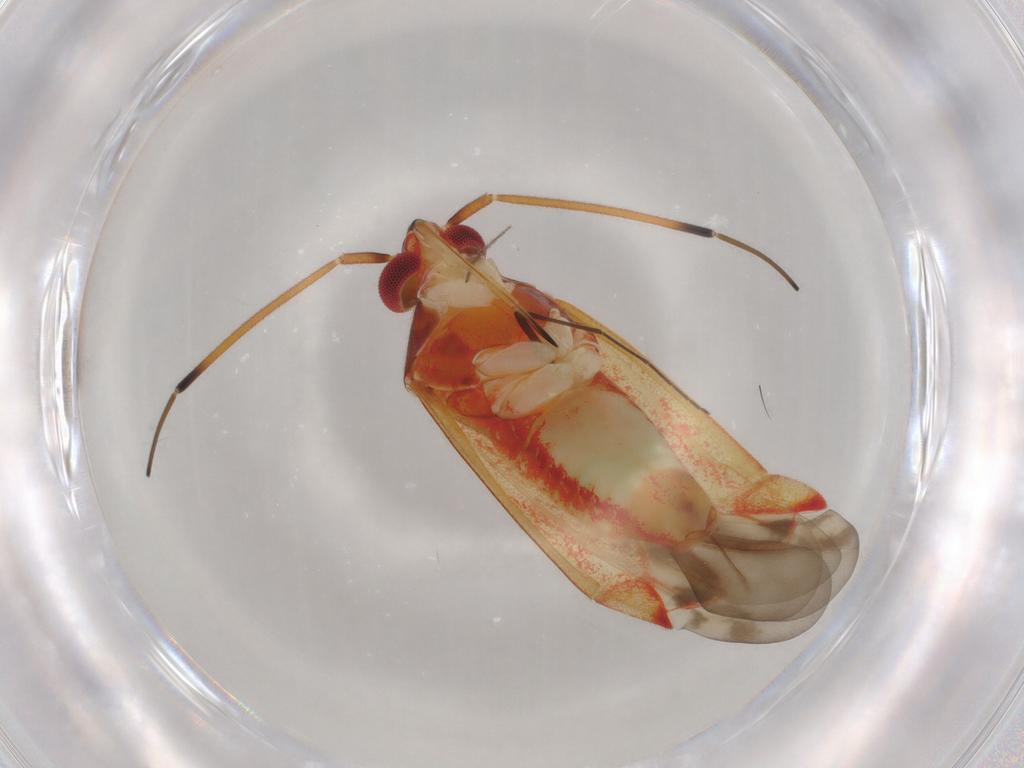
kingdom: Animalia
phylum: Arthropoda
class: Insecta
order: Hemiptera
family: Miridae
